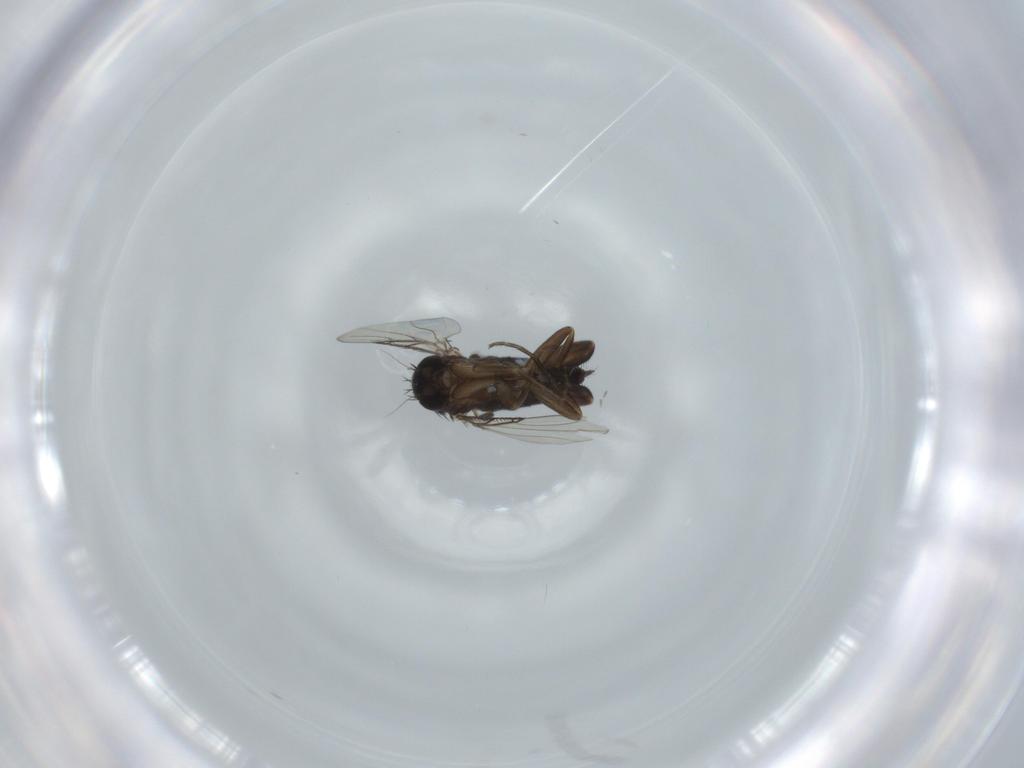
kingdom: Animalia
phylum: Arthropoda
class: Insecta
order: Diptera
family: Phoridae
